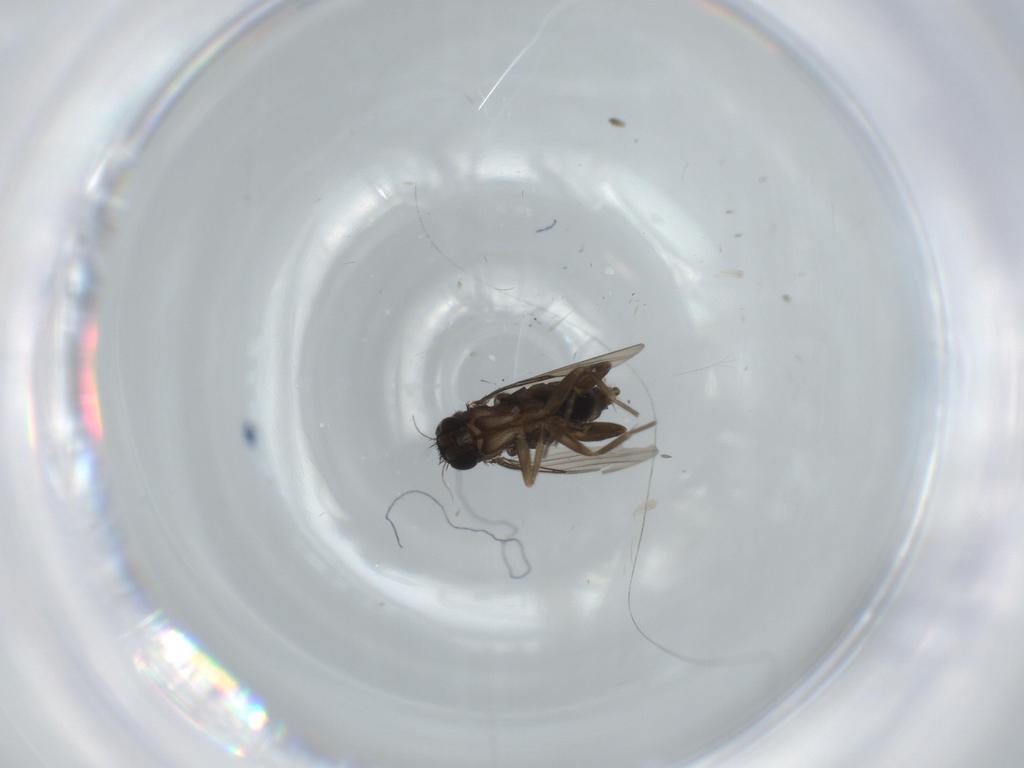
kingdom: Animalia
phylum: Arthropoda
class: Insecta
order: Diptera
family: Phoridae
